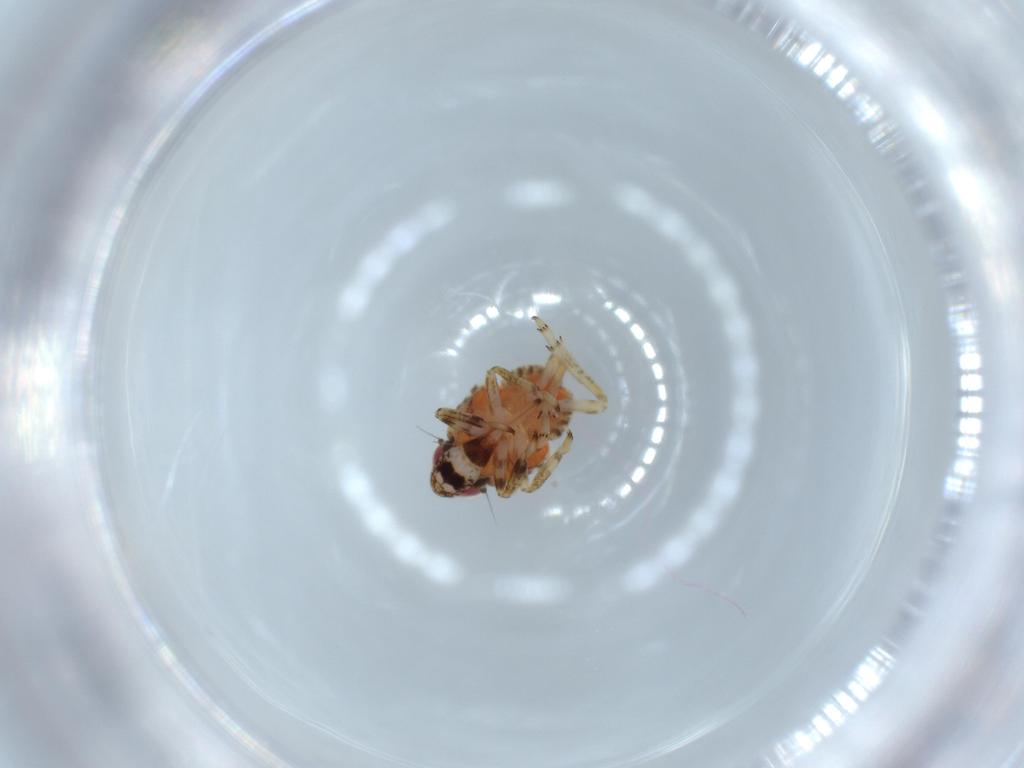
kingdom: Animalia
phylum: Arthropoda
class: Insecta
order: Hemiptera
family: Issidae
